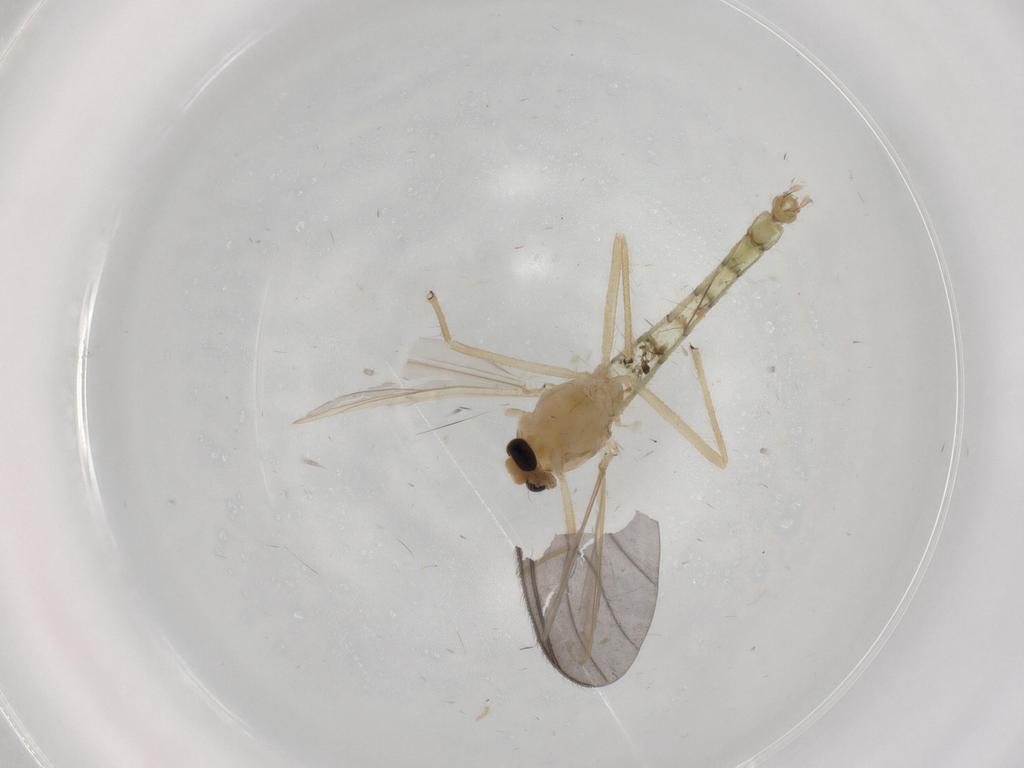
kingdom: Animalia
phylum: Arthropoda
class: Insecta
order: Diptera
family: Chironomidae
